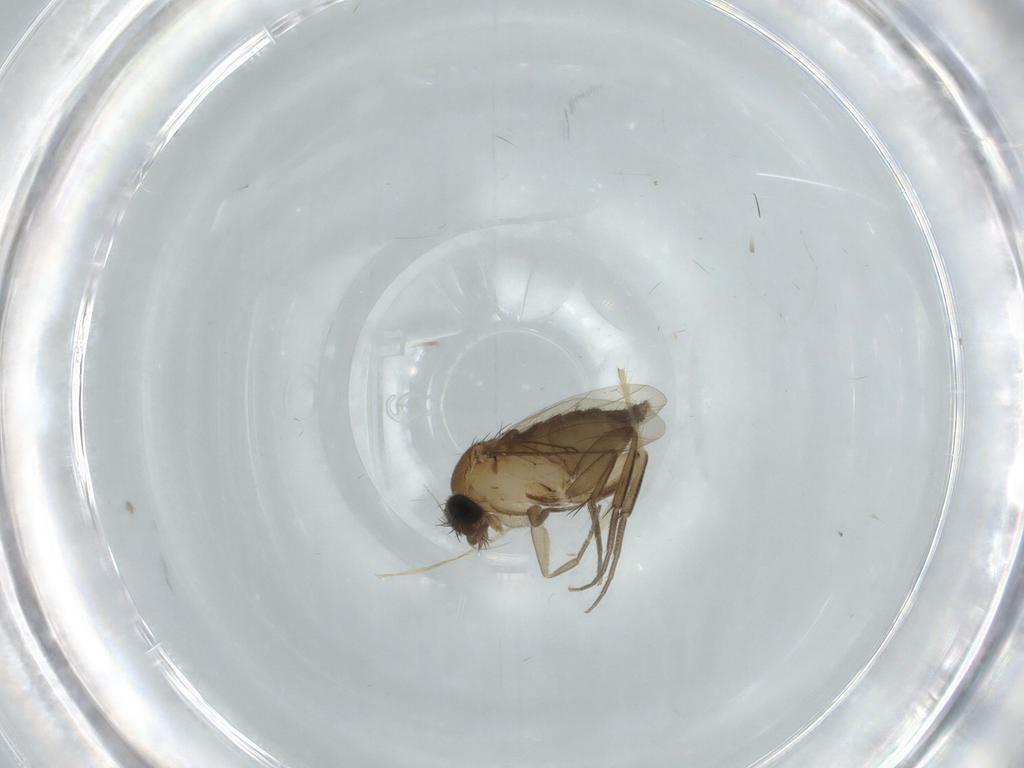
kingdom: Animalia
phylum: Arthropoda
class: Insecta
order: Diptera
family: Phoridae
